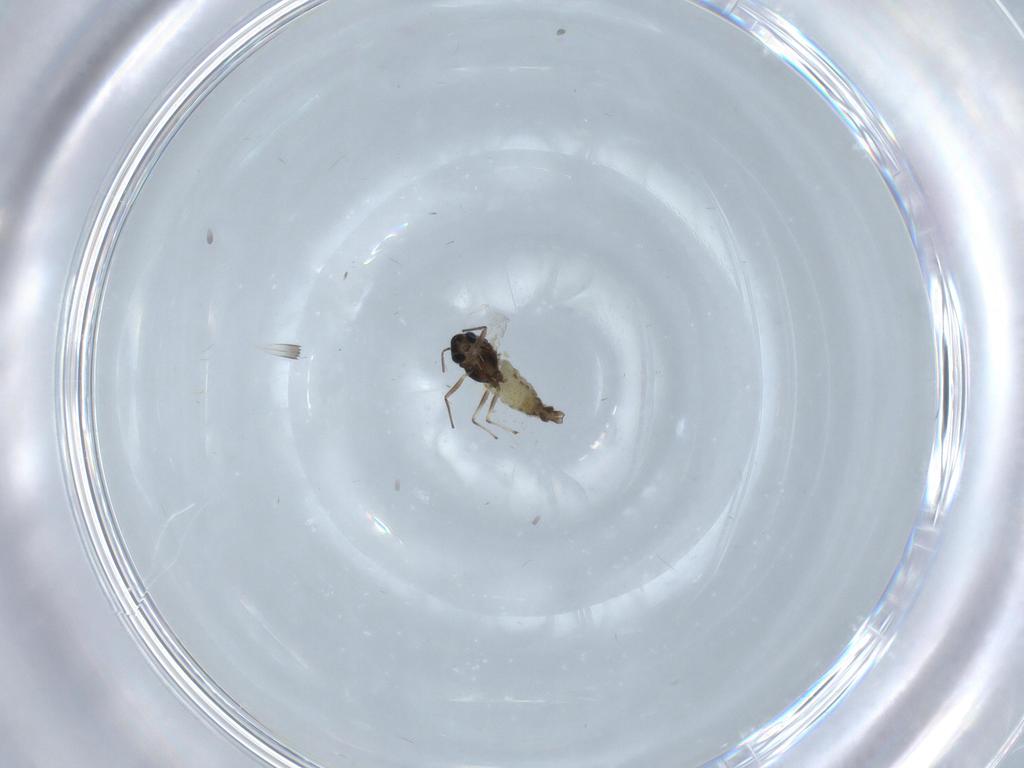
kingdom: Animalia
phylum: Arthropoda
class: Insecta
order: Diptera
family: Chironomidae
